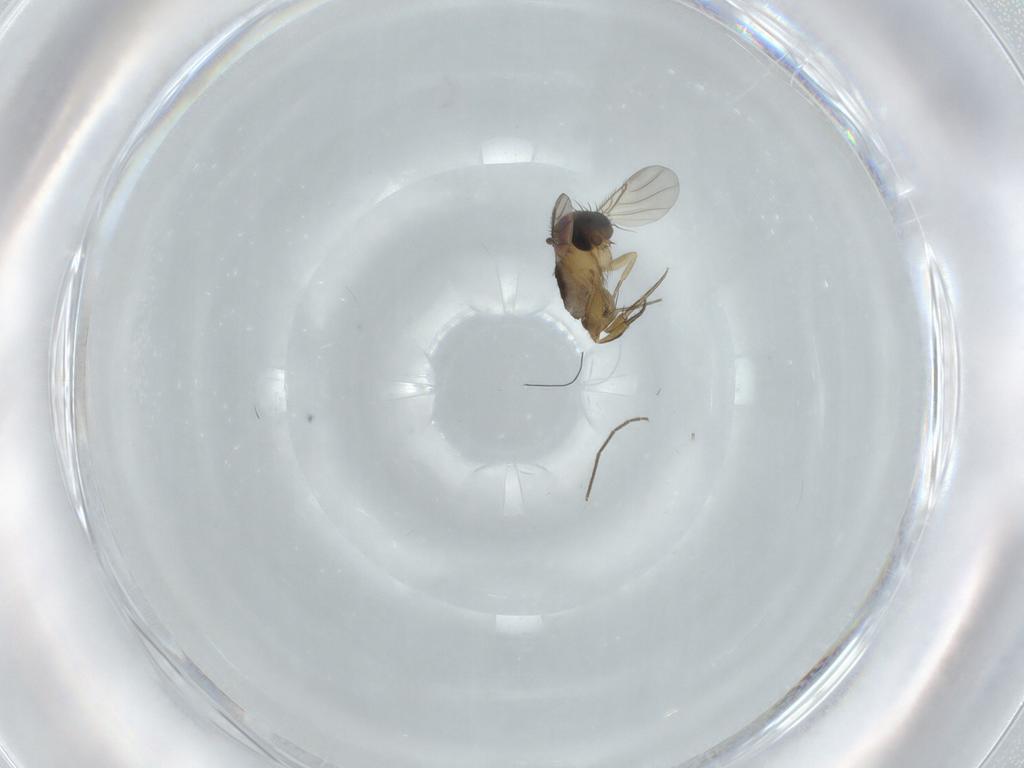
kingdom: Animalia
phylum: Arthropoda
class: Insecta
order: Diptera
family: Phoridae
